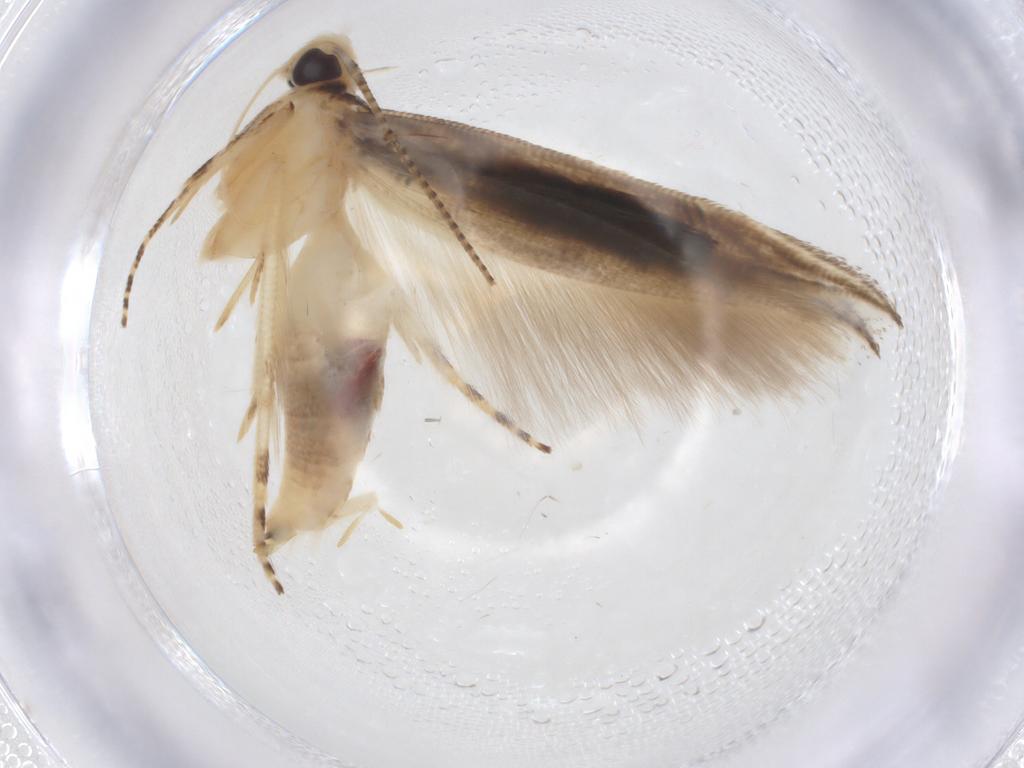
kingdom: Animalia
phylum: Arthropoda
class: Insecta
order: Lepidoptera
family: Momphidae
